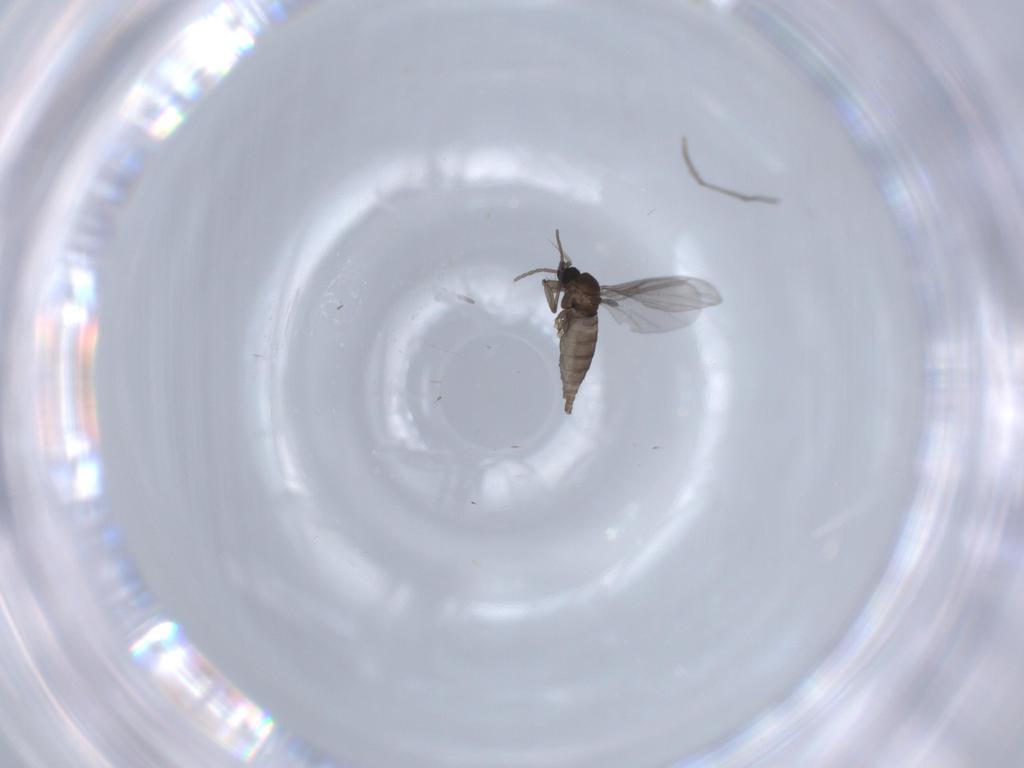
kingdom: Animalia
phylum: Arthropoda
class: Insecta
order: Diptera
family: Sciaridae
